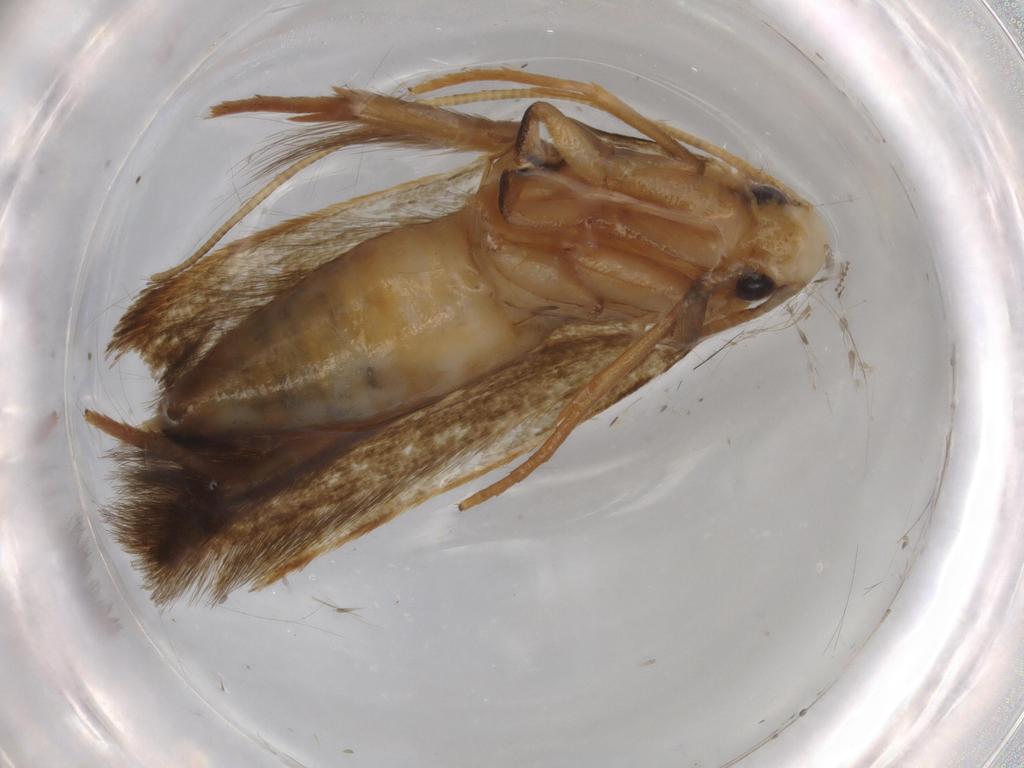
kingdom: Animalia
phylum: Arthropoda
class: Insecta
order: Lepidoptera
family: Tineidae
